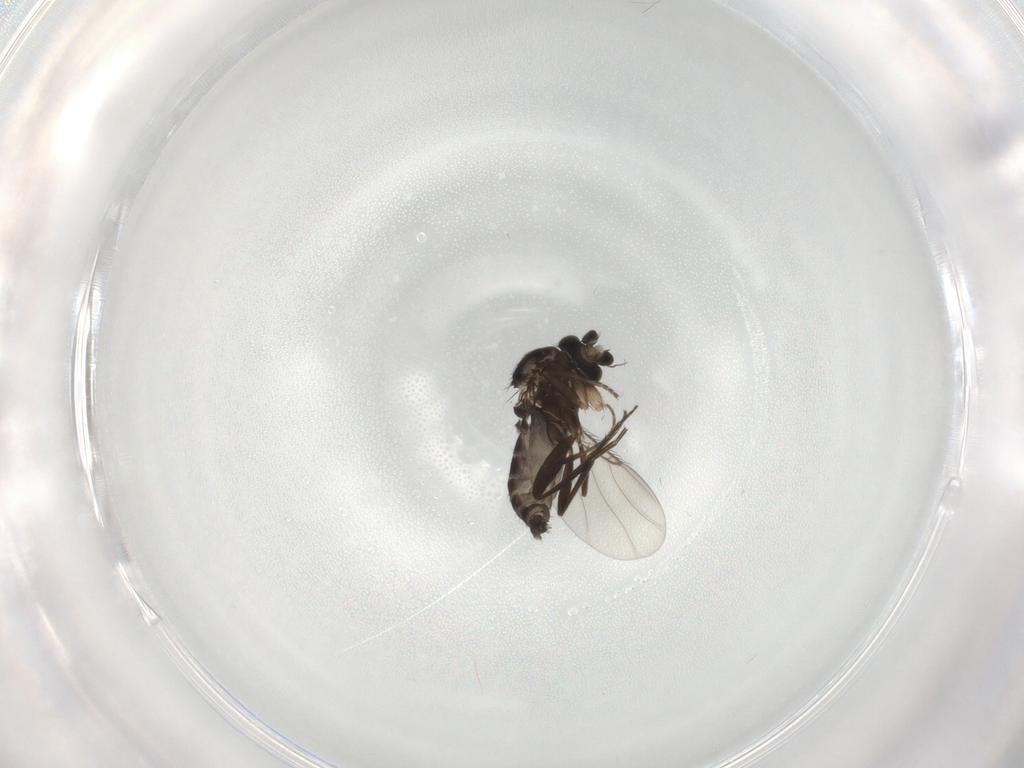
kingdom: Animalia
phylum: Arthropoda
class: Insecta
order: Diptera
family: Phoridae
